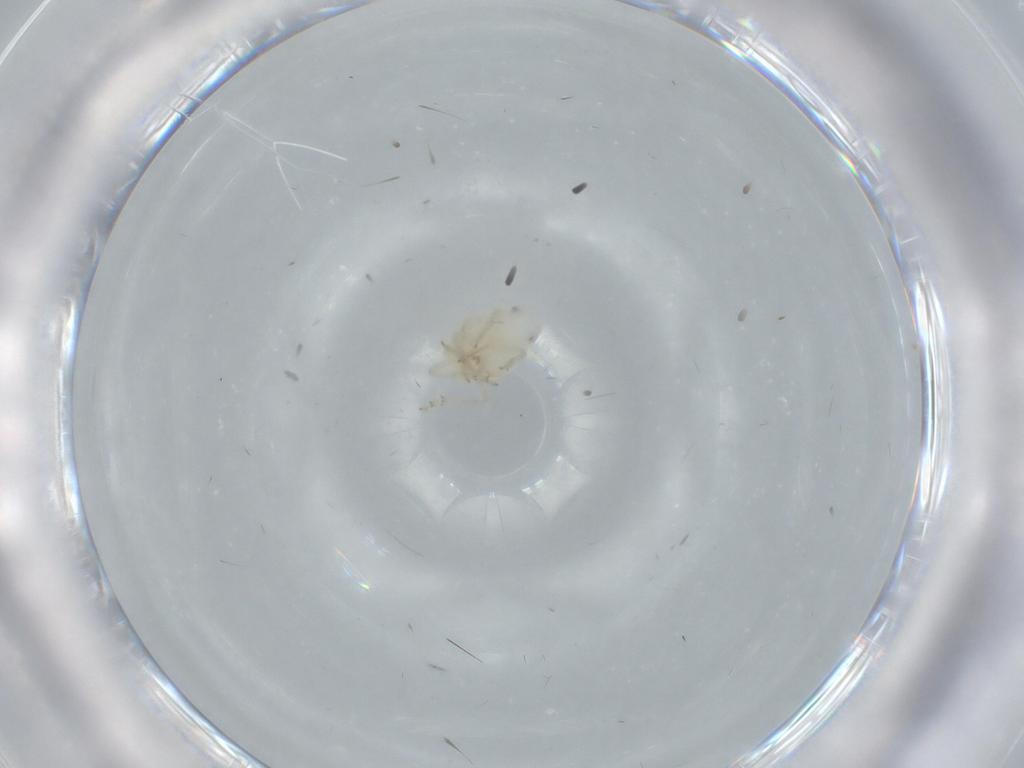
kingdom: Animalia
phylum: Arthropoda
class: Insecta
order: Hemiptera
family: Flatidae
